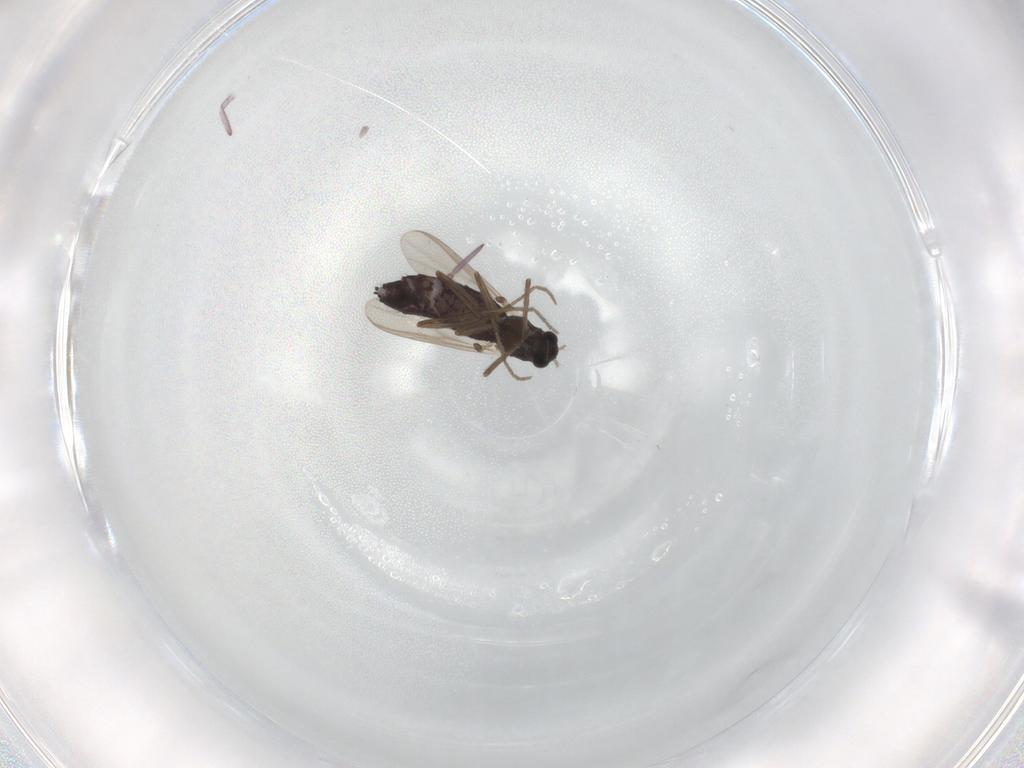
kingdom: Animalia
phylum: Arthropoda
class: Insecta
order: Diptera
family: Chironomidae
